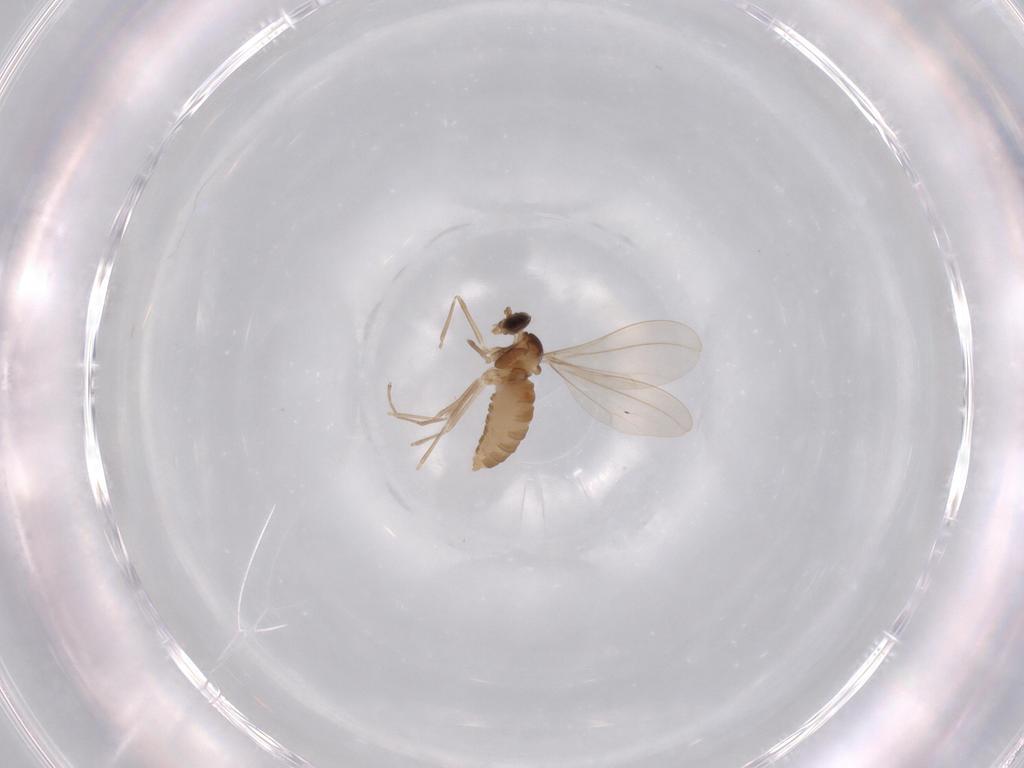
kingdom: Animalia
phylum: Arthropoda
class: Insecta
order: Diptera
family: Cecidomyiidae
